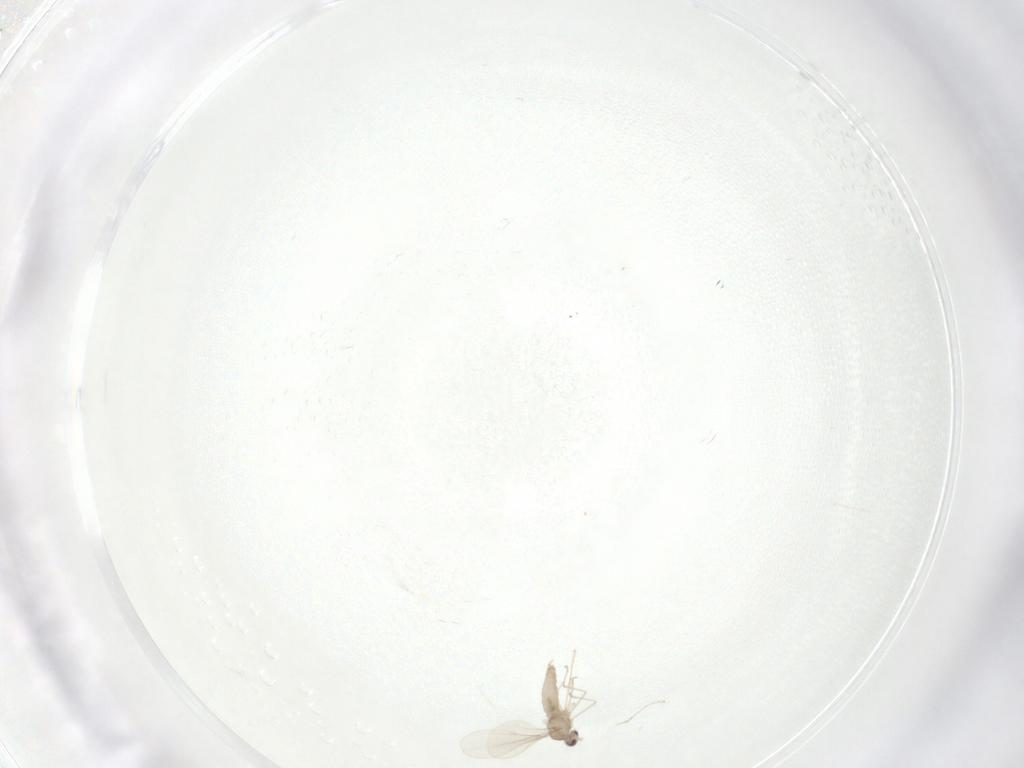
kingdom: Animalia
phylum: Arthropoda
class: Insecta
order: Diptera
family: Cecidomyiidae
